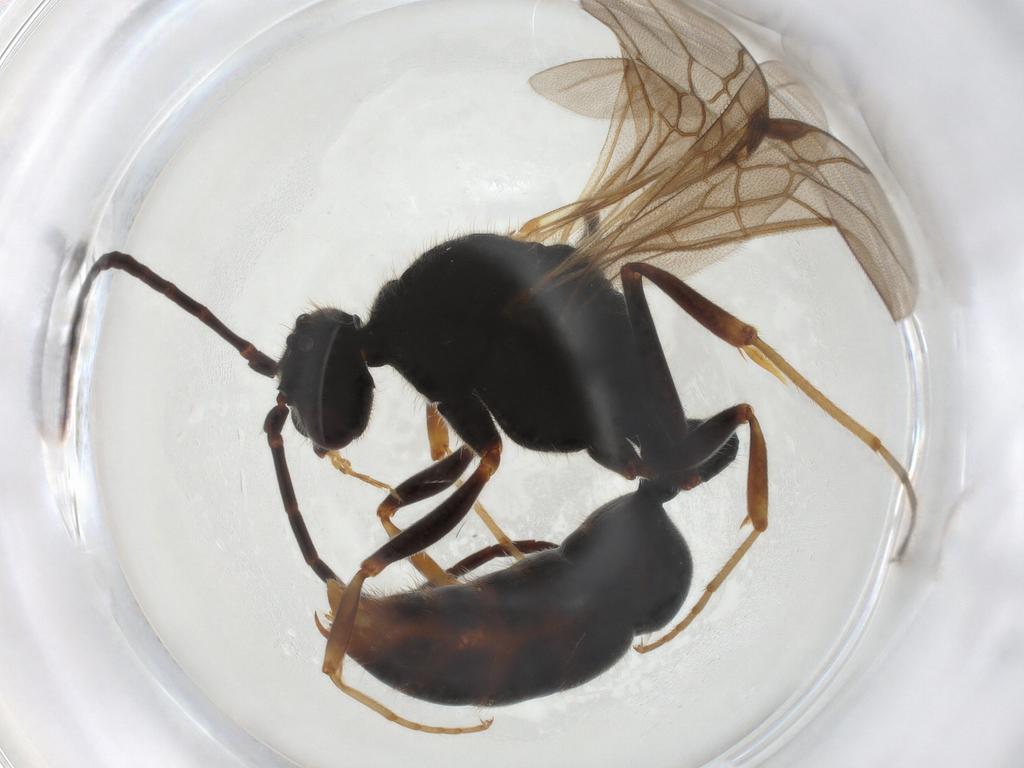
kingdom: Animalia
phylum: Arthropoda
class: Insecta
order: Hymenoptera
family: Formicidae
